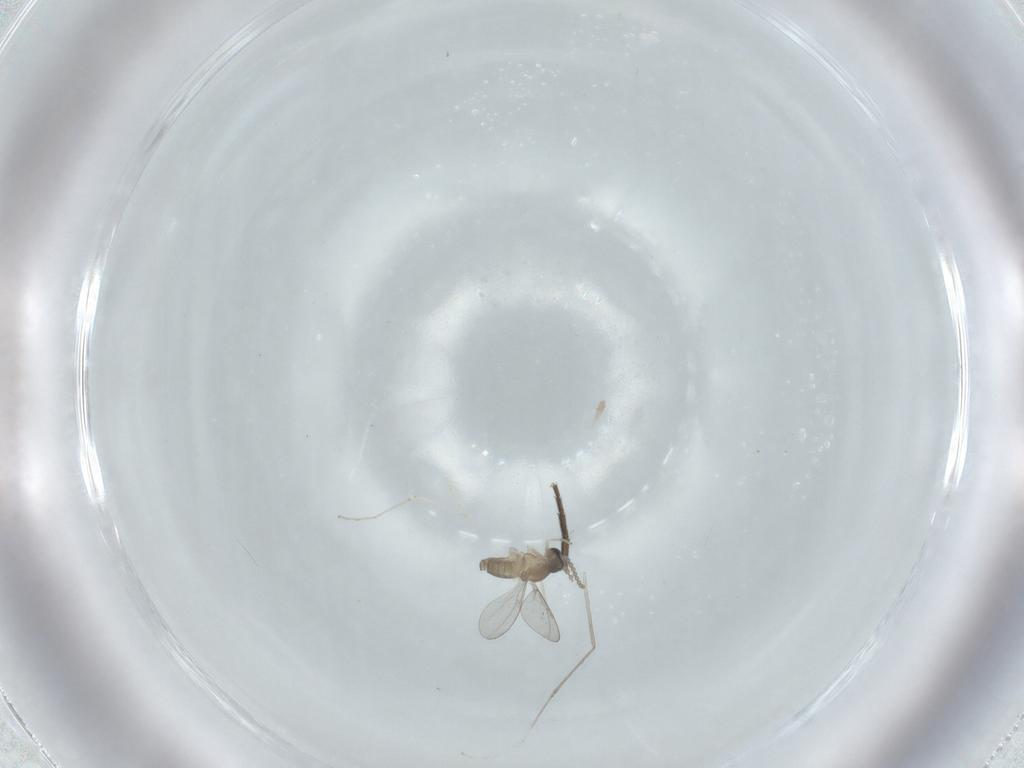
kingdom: Animalia
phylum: Arthropoda
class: Insecta
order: Diptera
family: Cecidomyiidae
